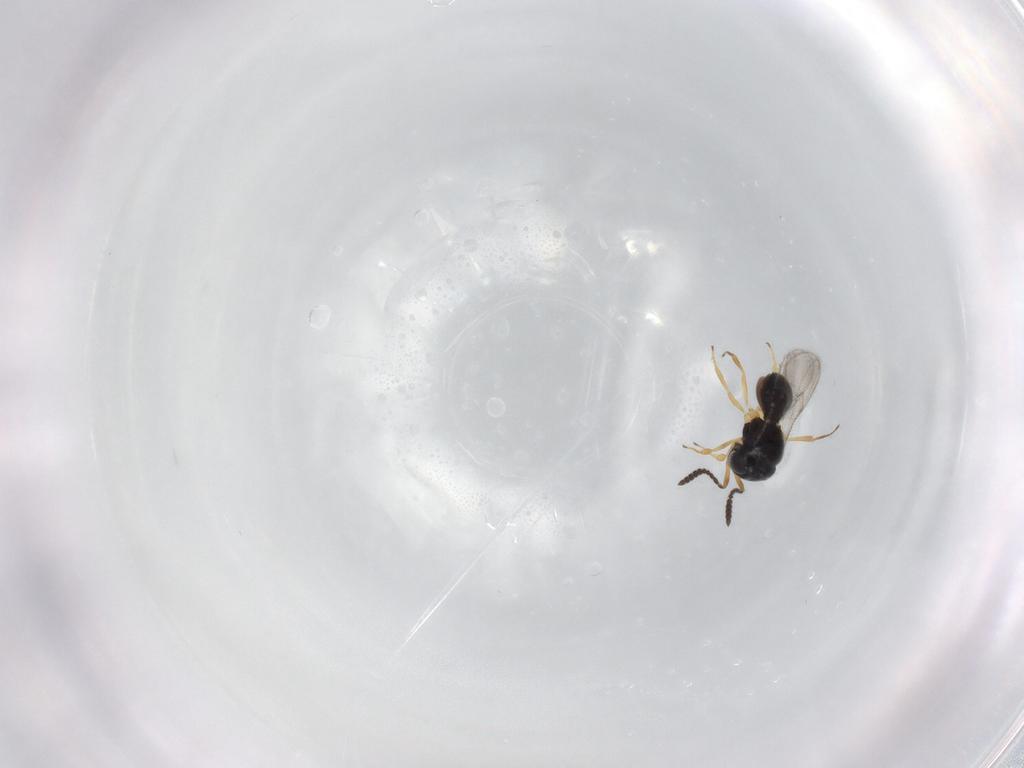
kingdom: Animalia
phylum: Arthropoda
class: Insecta
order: Hymenoptera
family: Scelionidae
